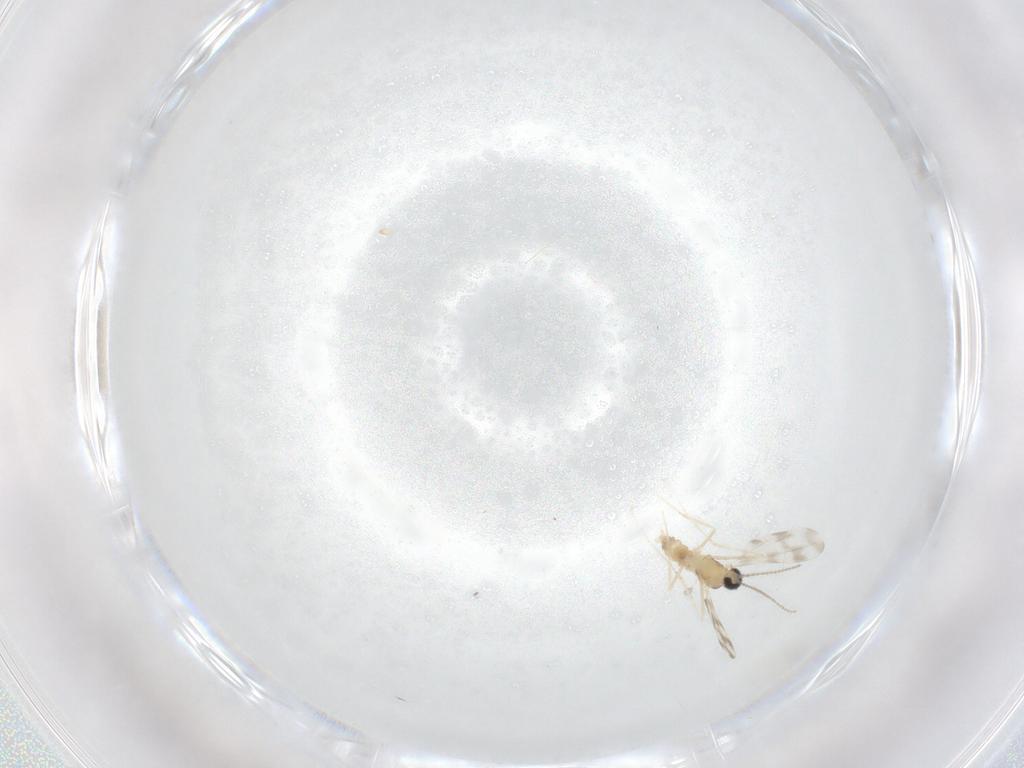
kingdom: Animalia
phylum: Arthropoda
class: Insecta
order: Diptera
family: Cecidomyiidae
